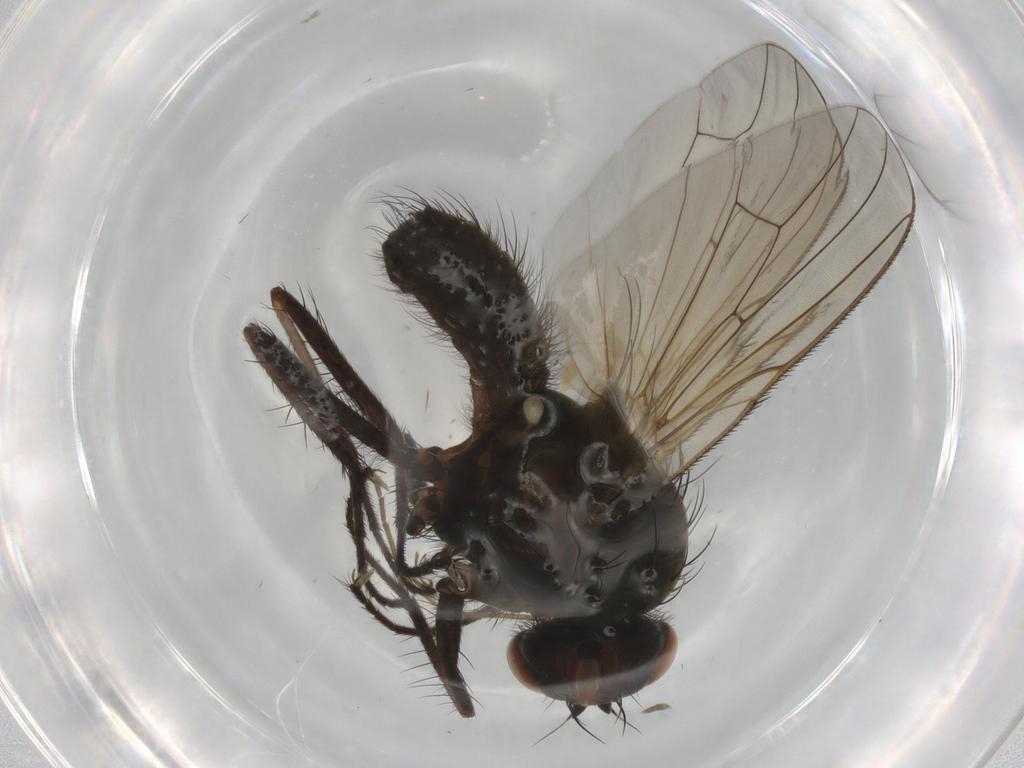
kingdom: Animalia
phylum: Arthropoda
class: Insecta
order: Diptera
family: Anthomyiidae
